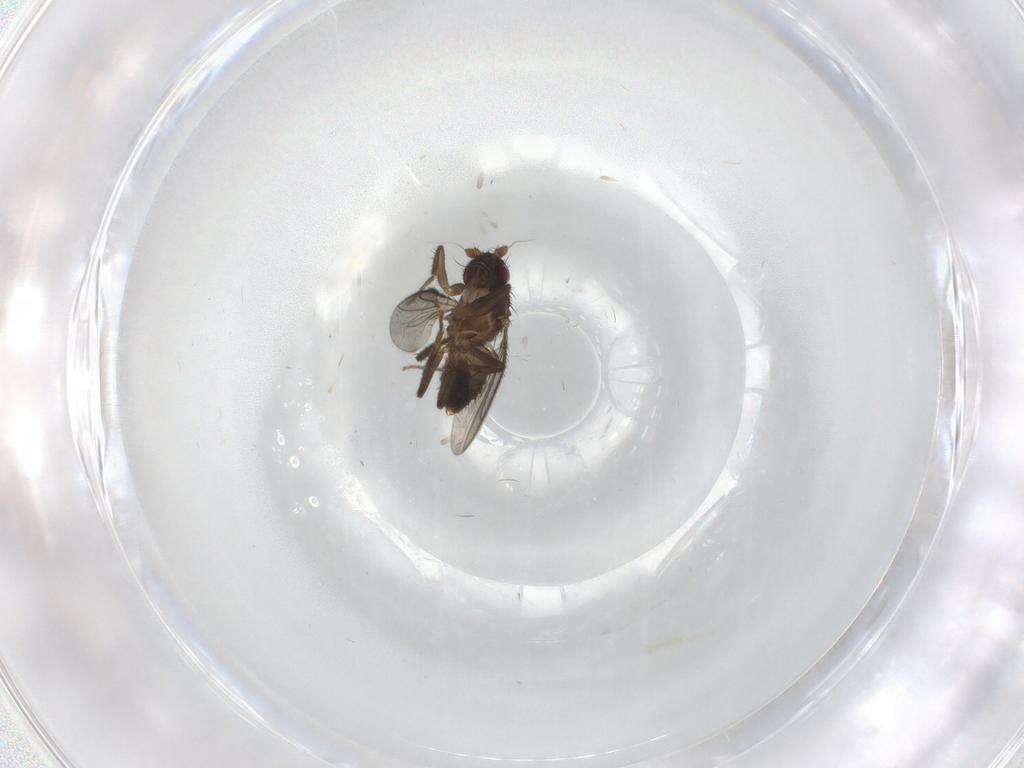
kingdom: Animalia
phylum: Arthropoda
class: Insecta
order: Diptera
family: Sphaeroceridae
